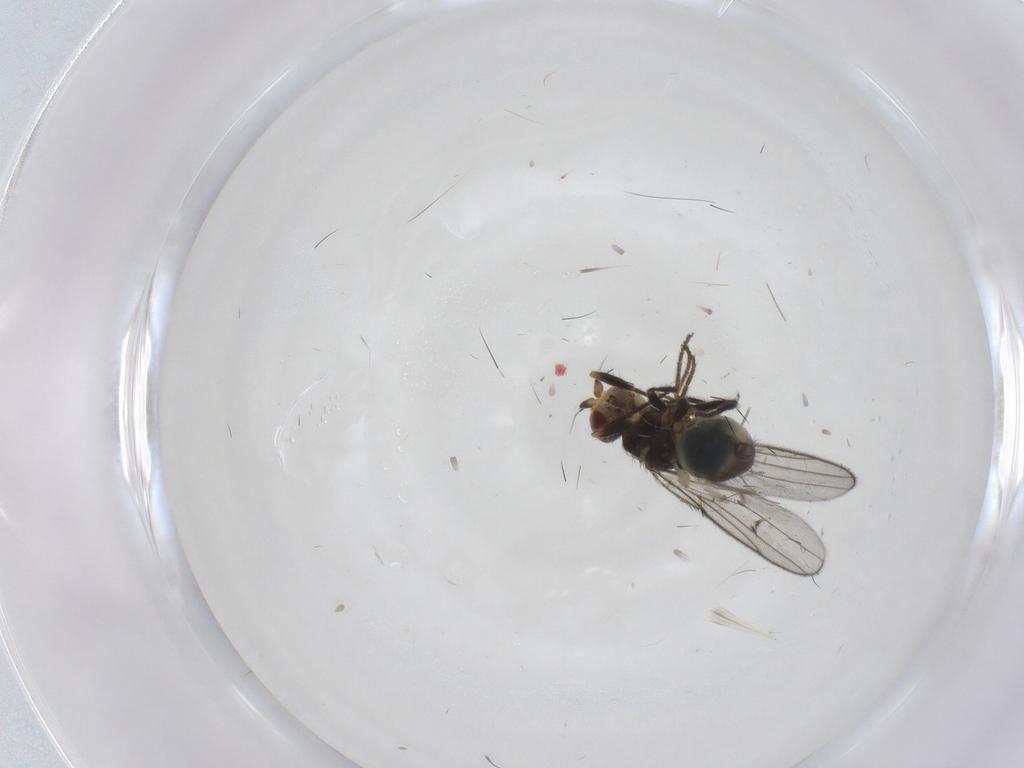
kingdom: Animalia
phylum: Arthropoda
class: Insecta
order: Diptera
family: Chloropidae
